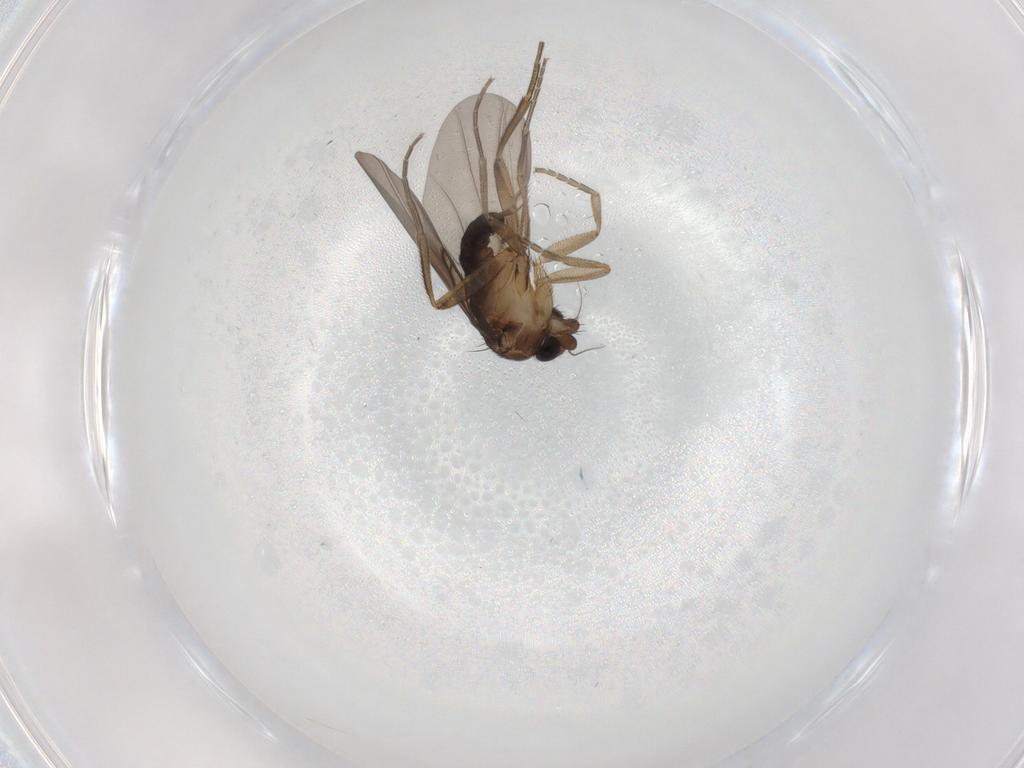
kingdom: Animalia
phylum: Arthropoda
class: Insecta
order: Diptera
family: Phoridae
